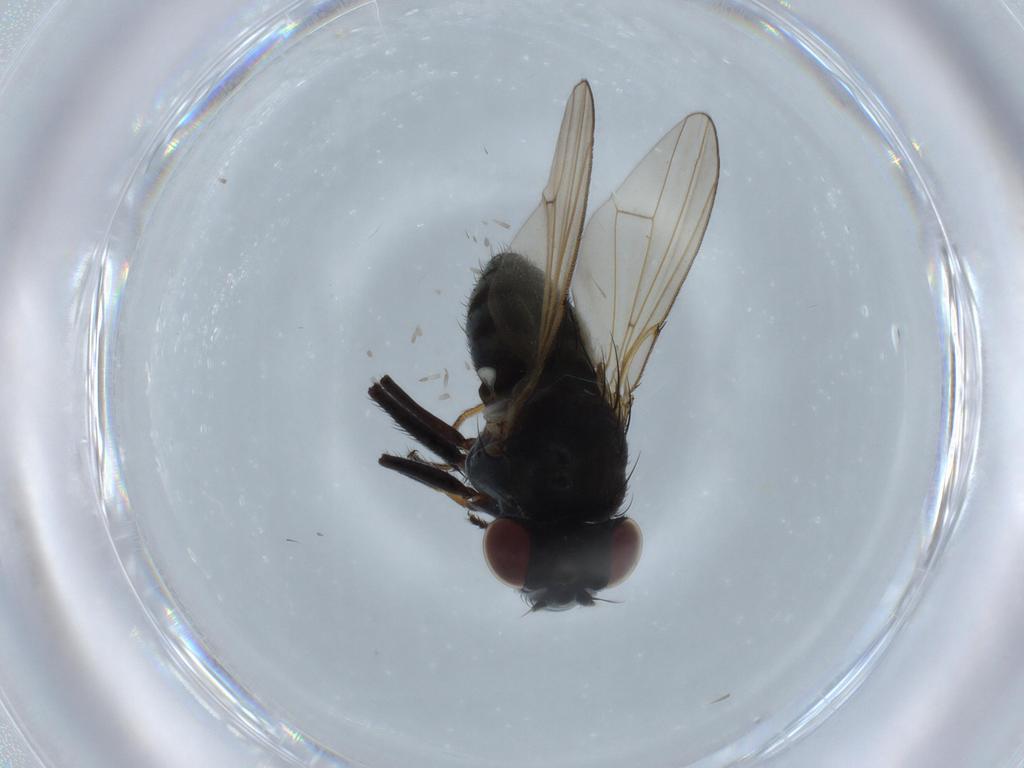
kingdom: Animalia
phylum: Arthropoda
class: Insecta
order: Diptera
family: Ephydridae
